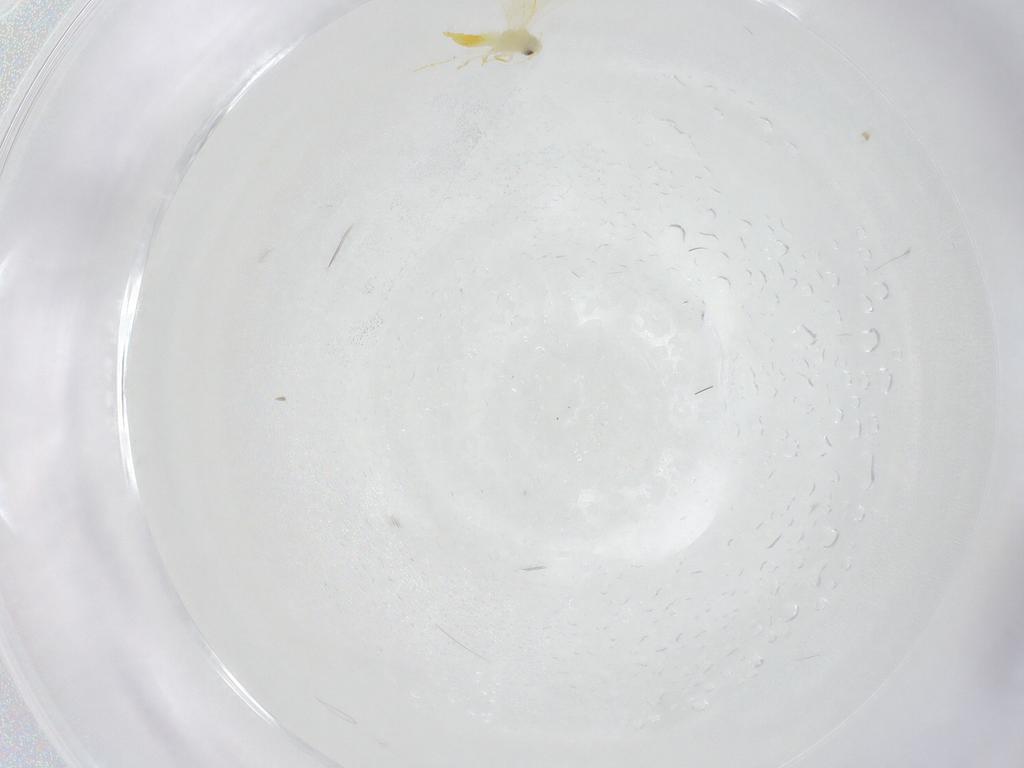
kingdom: Animalia
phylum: Arthropoda
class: Insecta
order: Hemiptera
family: Aleyrodidae
